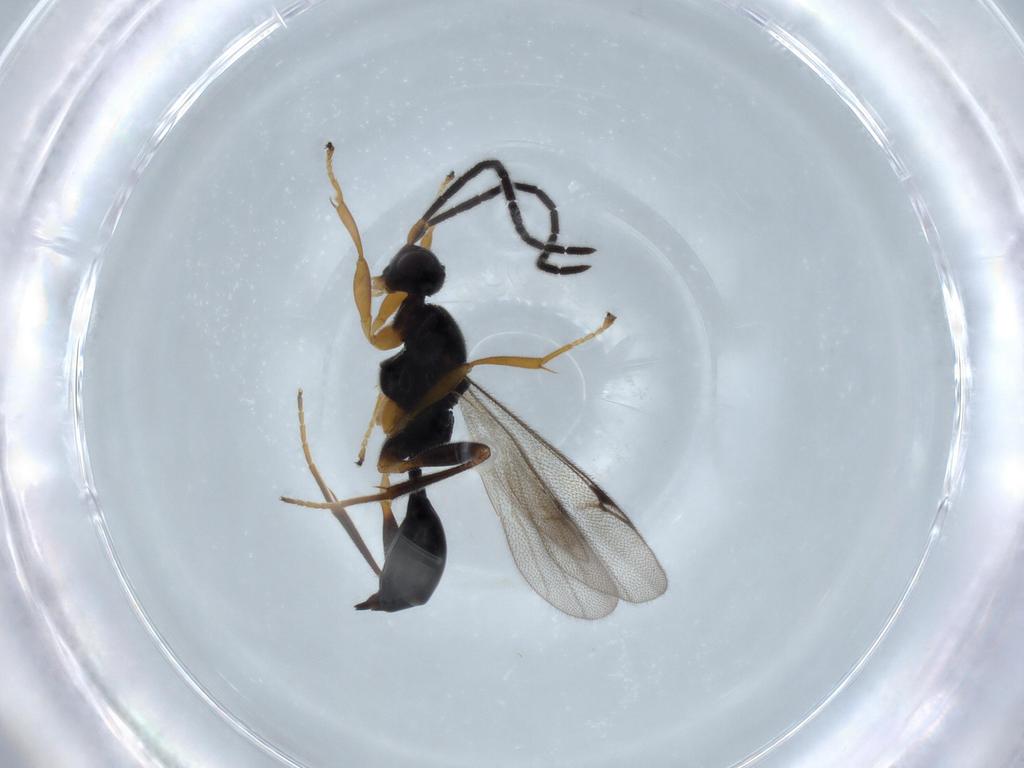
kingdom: Animalia
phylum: Arthropoda
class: Insecta
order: Hymenoptera
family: Proctotrupidae
